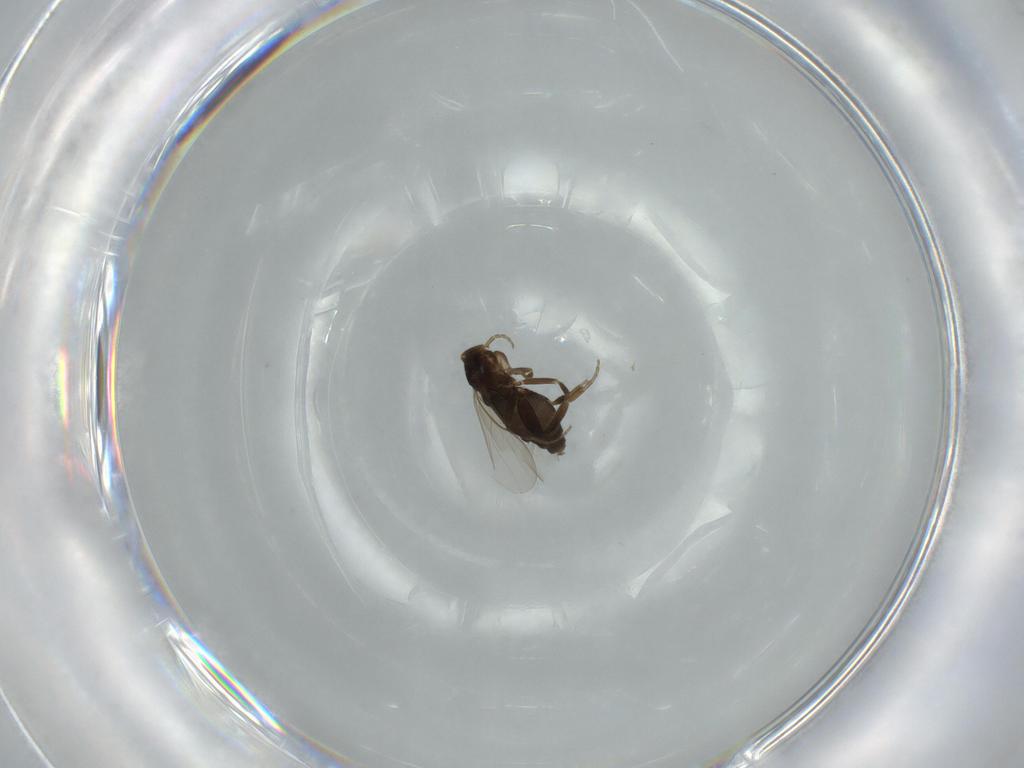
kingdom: Animalia
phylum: Arthropoda
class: Insecta
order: Diptera
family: Phoridae
